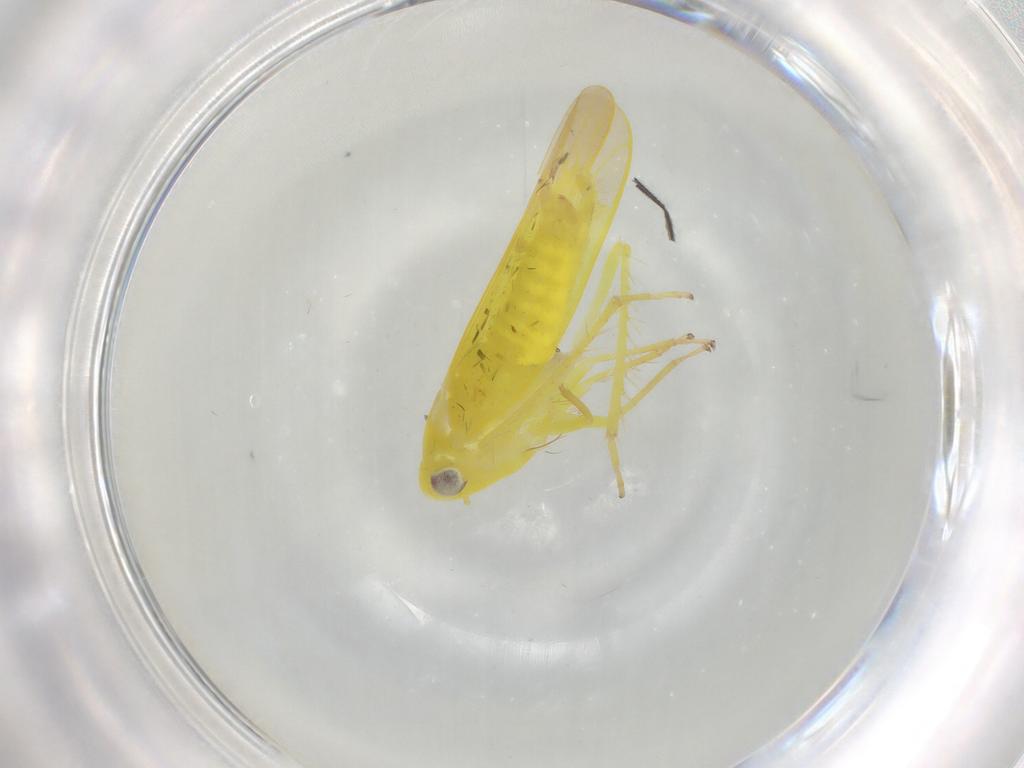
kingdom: Animalia
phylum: Arthropoda
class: Insecta
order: Hemiptera
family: Cicadellidae
